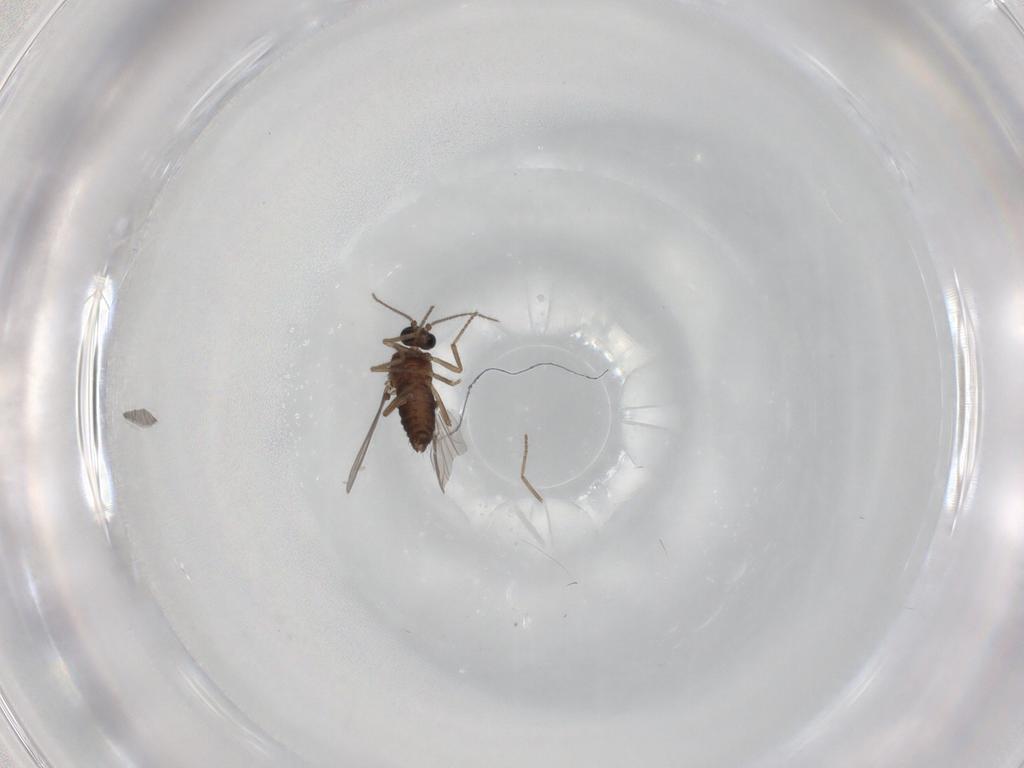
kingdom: Animalia
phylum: Arthropoda
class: Insecta
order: Diptera
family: Ceratopogonidae
